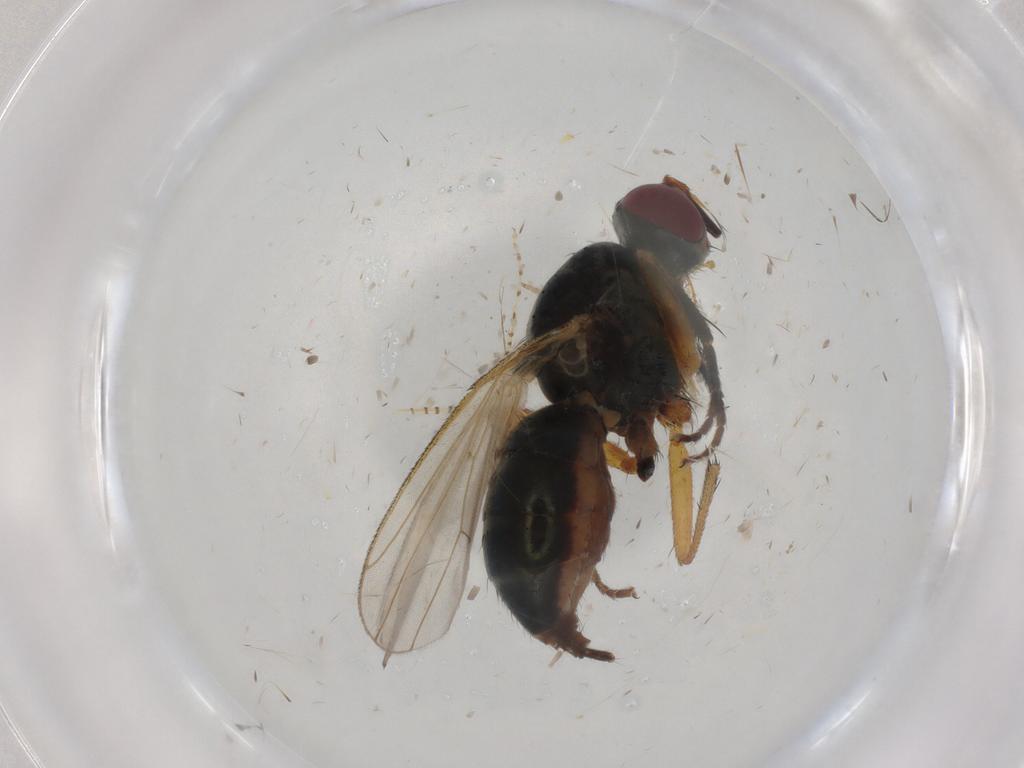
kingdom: Animalia
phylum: Arthropoda
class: Insecta
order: Diptera
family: Chironomidae
